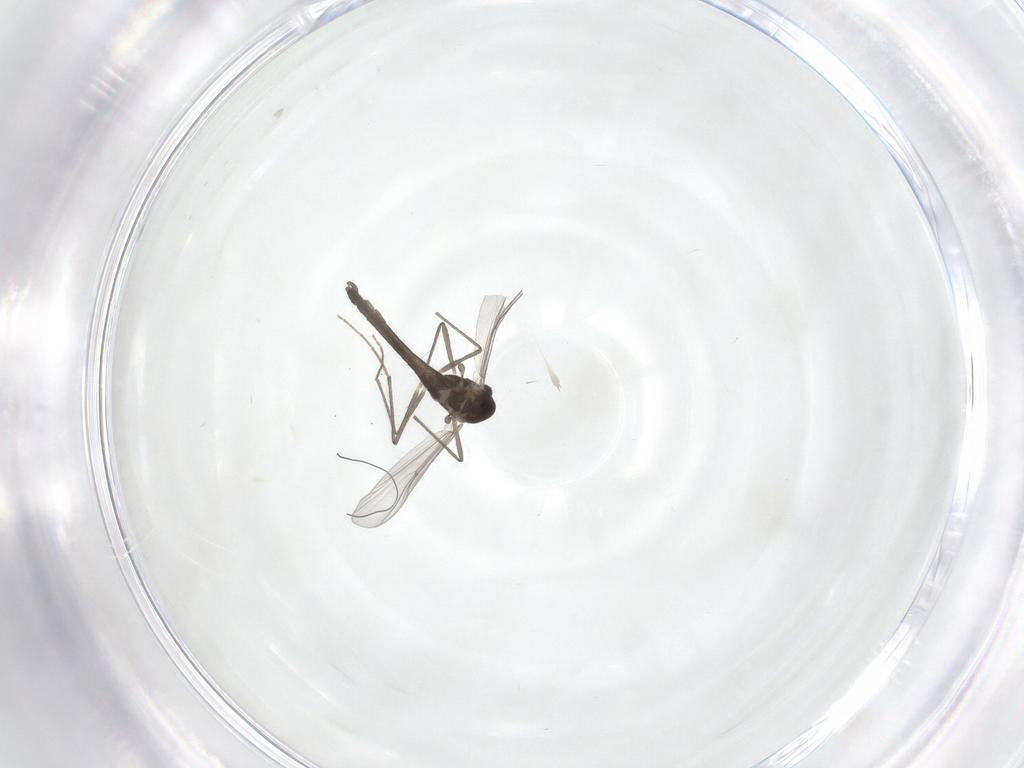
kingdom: Animalia
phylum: Arthropoda
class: Insecta
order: Diptera
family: Chironomidae
